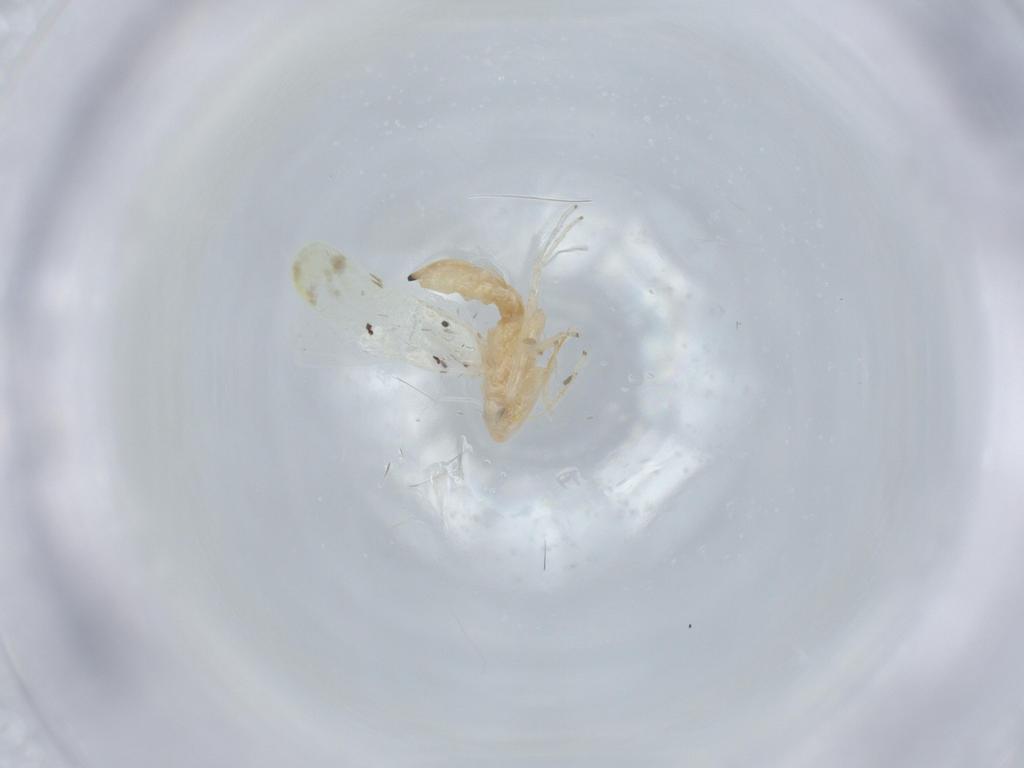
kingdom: Animalia
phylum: Arthropoda
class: Insecta
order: Hemiptera
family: Cicadellidae
